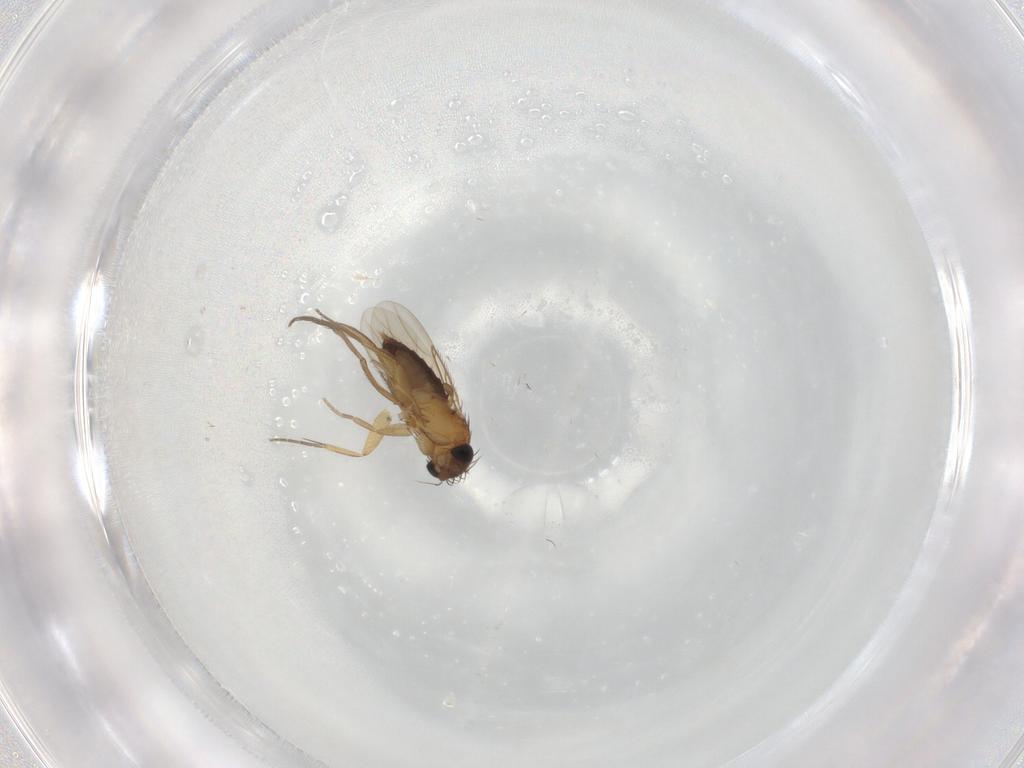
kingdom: Animalia
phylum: Arthropoda
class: Insecta
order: Diptera
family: Phoridae
